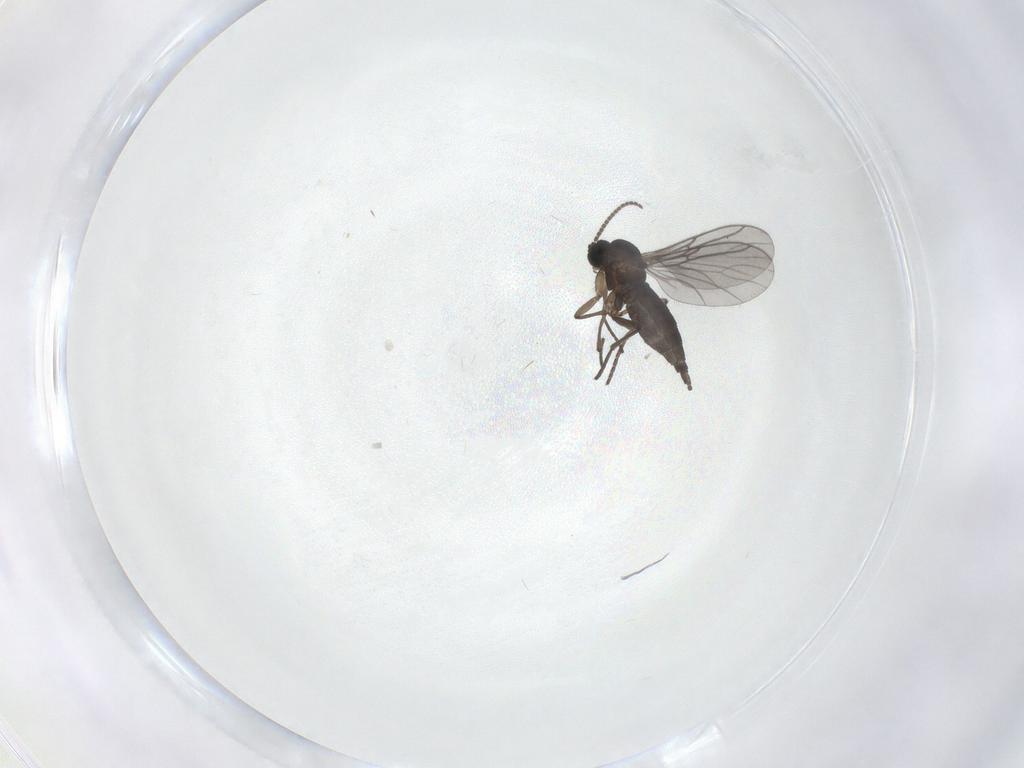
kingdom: Animalia
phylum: Arthropoda
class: Insecta
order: Diptera
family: Sciaridae
